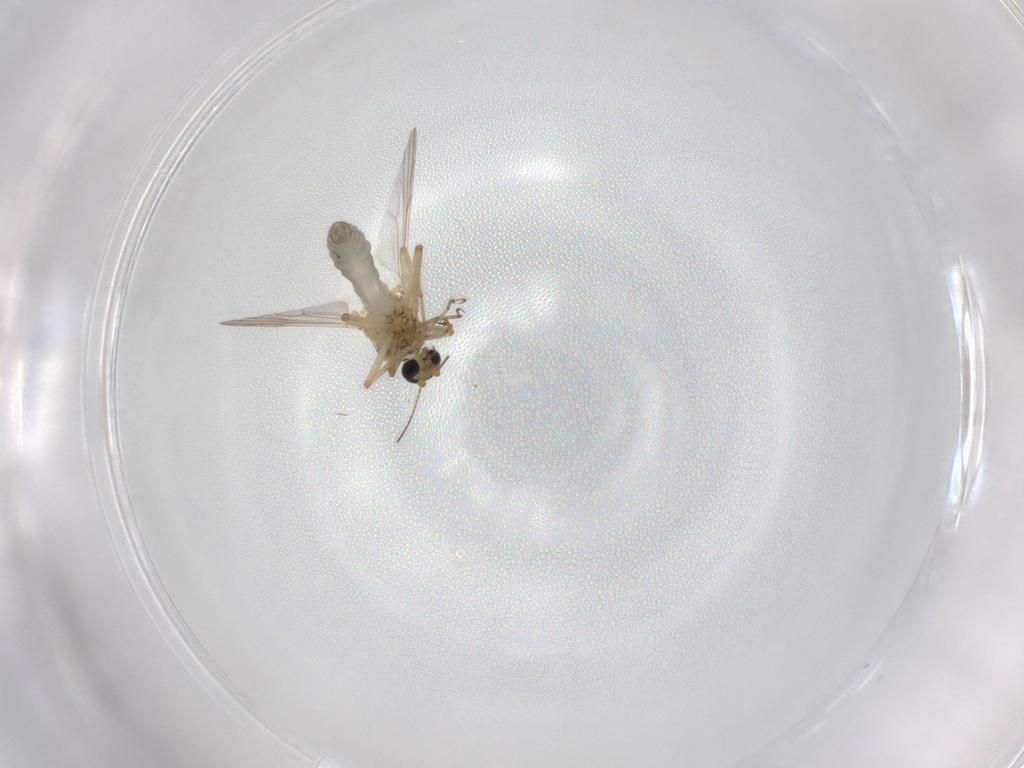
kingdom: Animalia
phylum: Arthropoda
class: Insecta
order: Diptera
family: Ceratopogonidae
